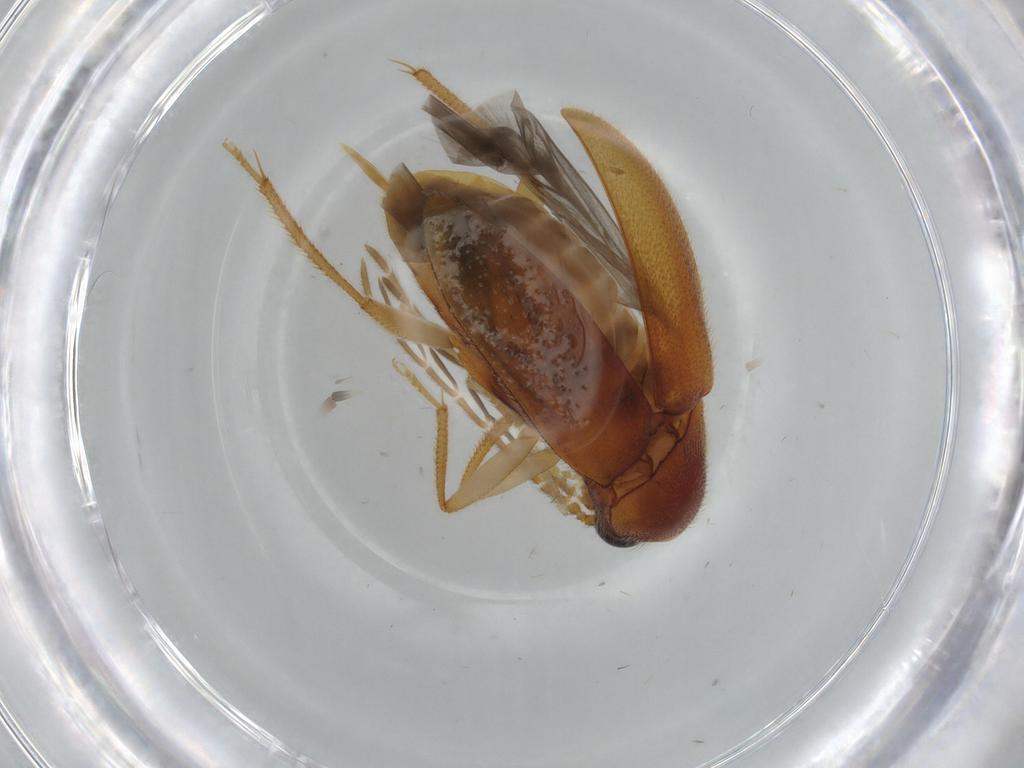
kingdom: Animalia
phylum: Arthropoda
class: Insecta
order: Coleoptera
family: Ptilodactylidae
